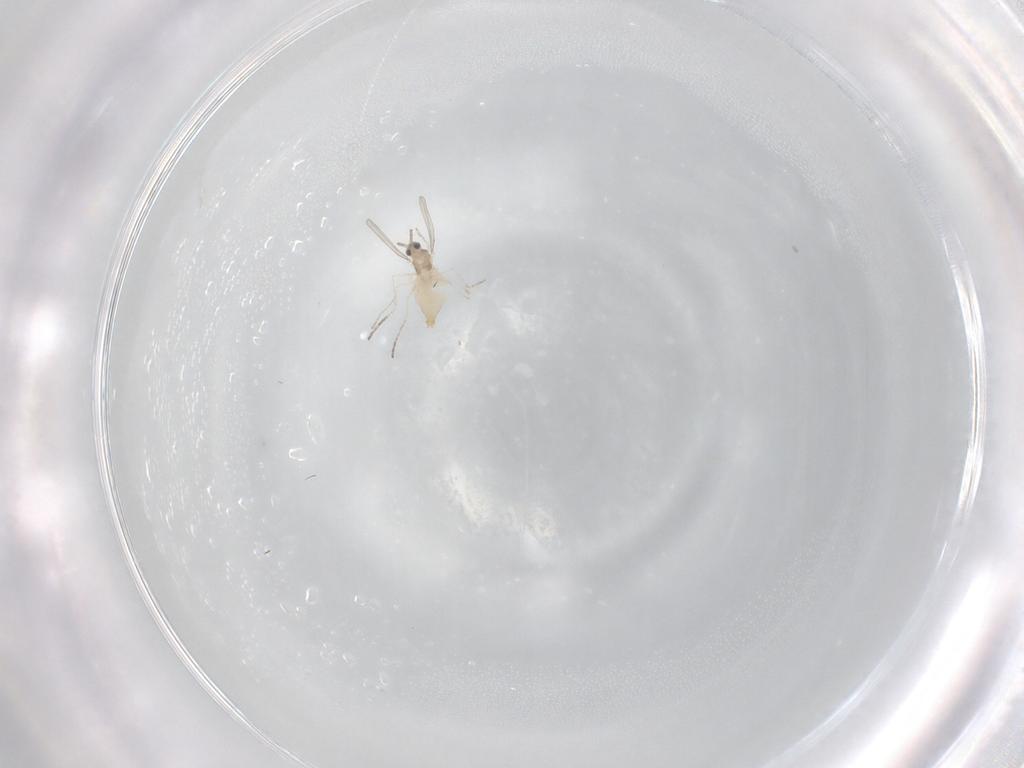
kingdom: Animalia
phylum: Arthropoda
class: Insecta
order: Diptera
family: Cecidomyiidae
